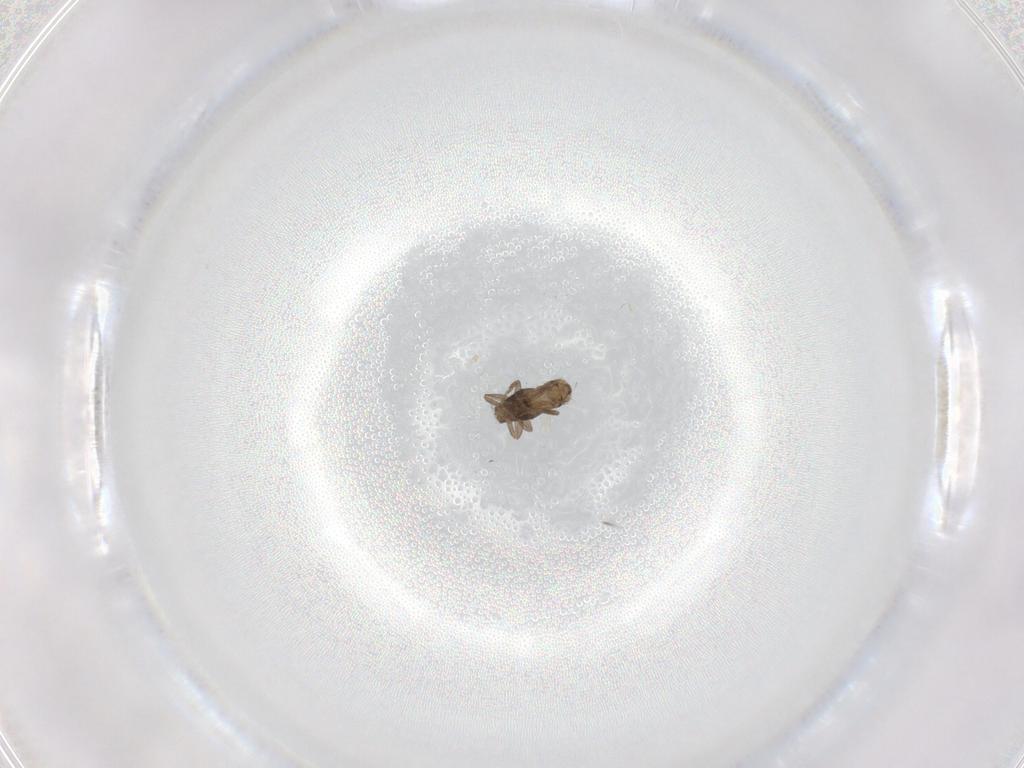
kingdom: Animalia
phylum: Arthropoda
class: Insecta
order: Diptera
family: Sciaridae
